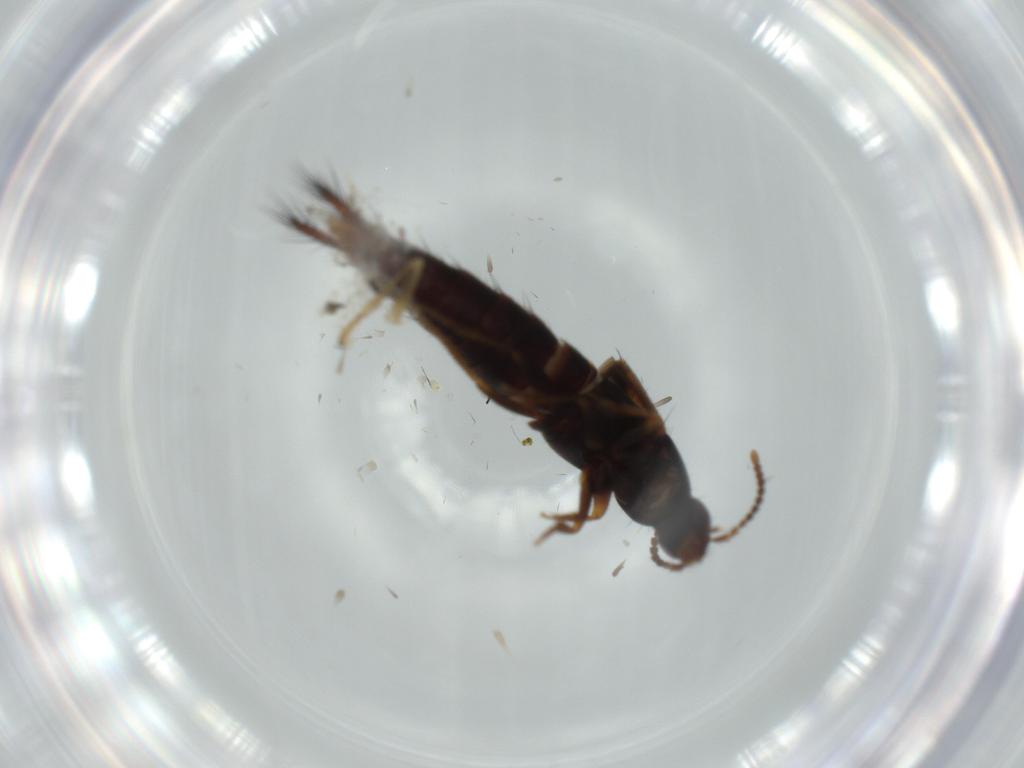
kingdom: Animalia
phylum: Arthropoda
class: Insecta
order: Coleoptera
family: Staphylinidae
